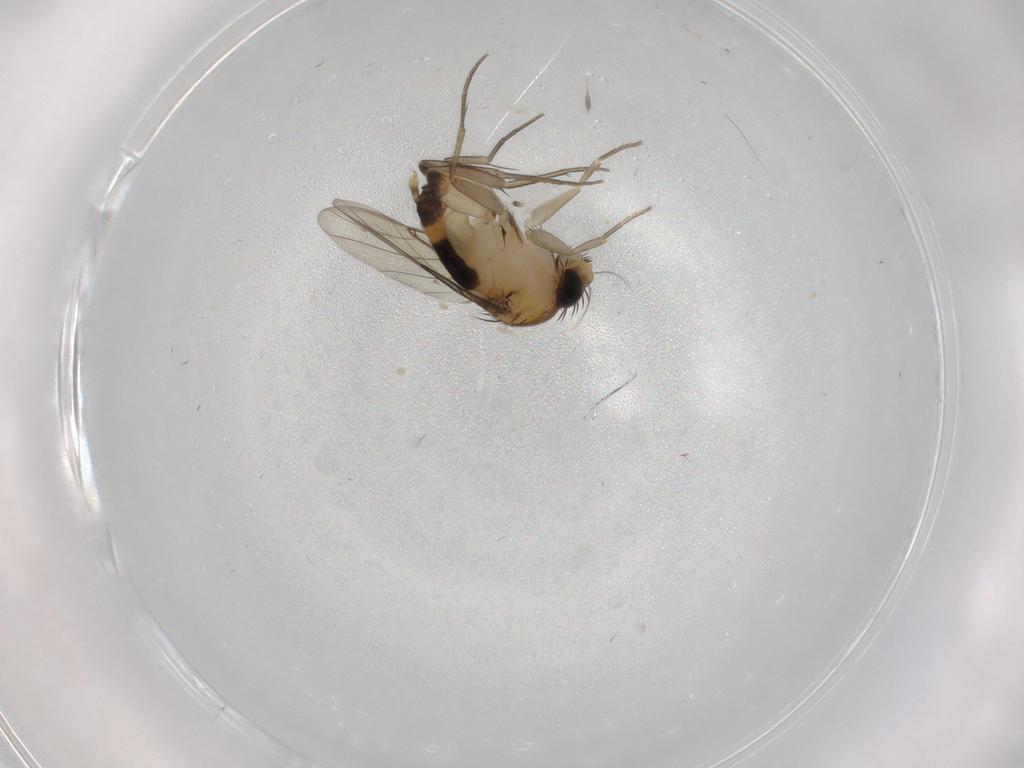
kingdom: Animalia
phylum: Arthropoda
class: Insecta
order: Diptera
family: Phoridae
